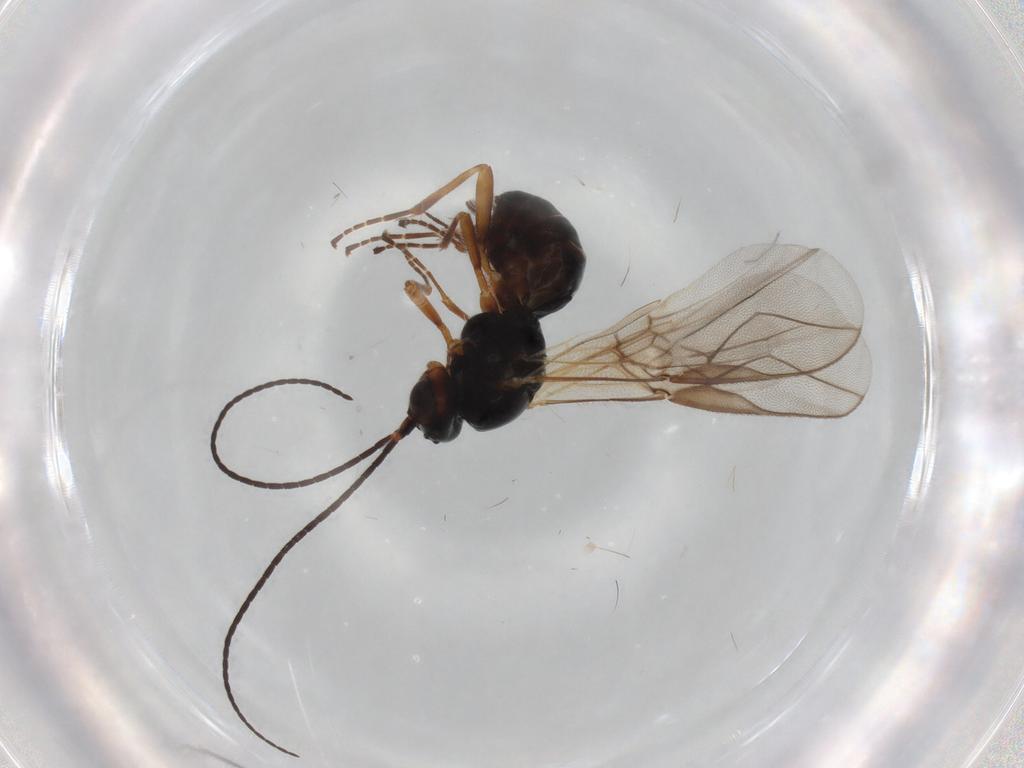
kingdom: Animalia
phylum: Arthropoda
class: Insecta
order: Hymenoptera
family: Braconidae
